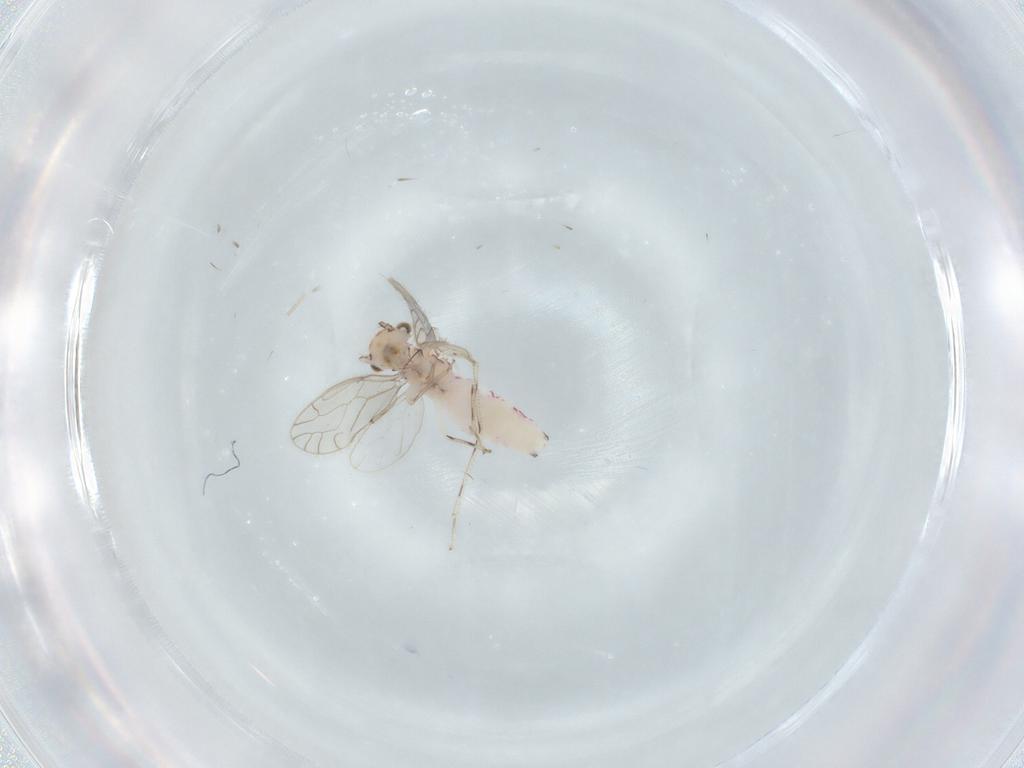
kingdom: Animalia
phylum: Arthropoda
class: Insecta
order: Psocodea
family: Caeciliusidae
